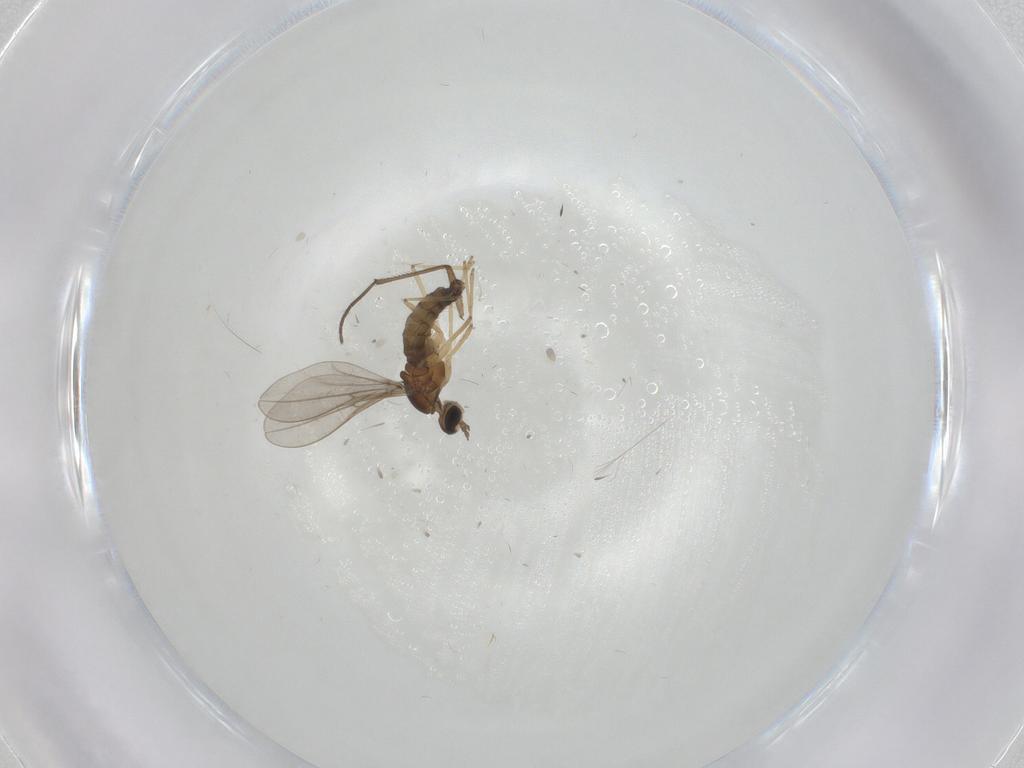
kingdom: Animalia
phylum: Arthropoda
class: Insecta
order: Diptera
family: Cecidomyiidae
